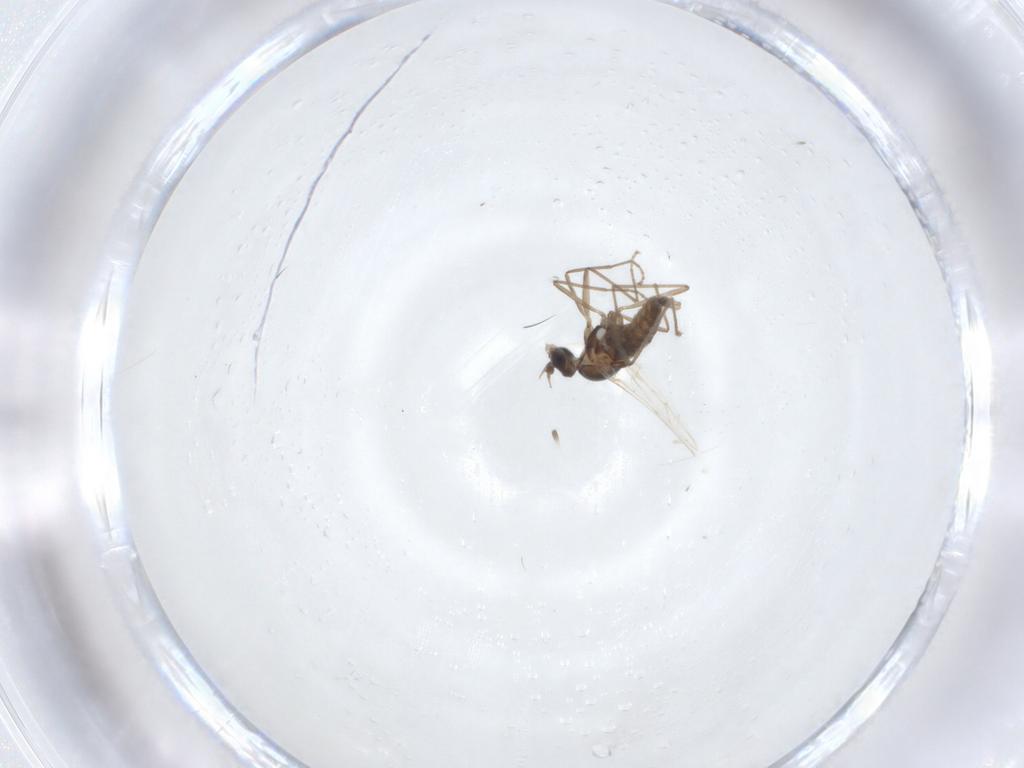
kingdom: Animalia
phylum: Arthropoda
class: Insecta
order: Diptera
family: Cecidomyiidae
